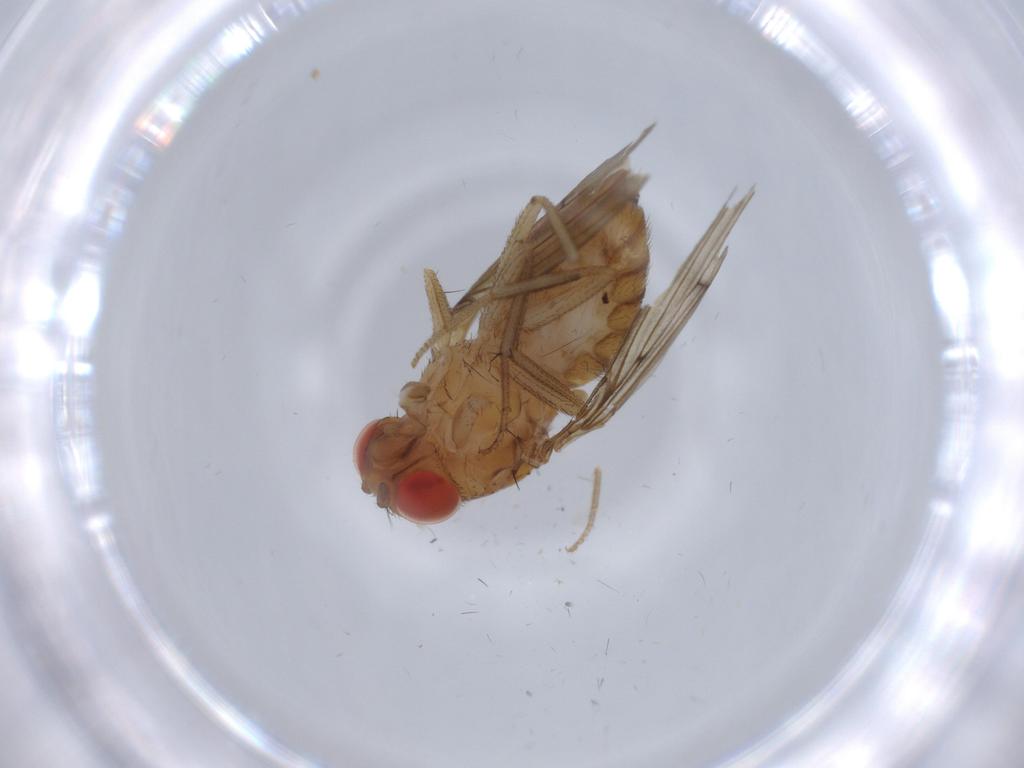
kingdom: Animalia
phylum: Arthropoda
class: Insecta
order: Diptera
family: Drosophilidae
